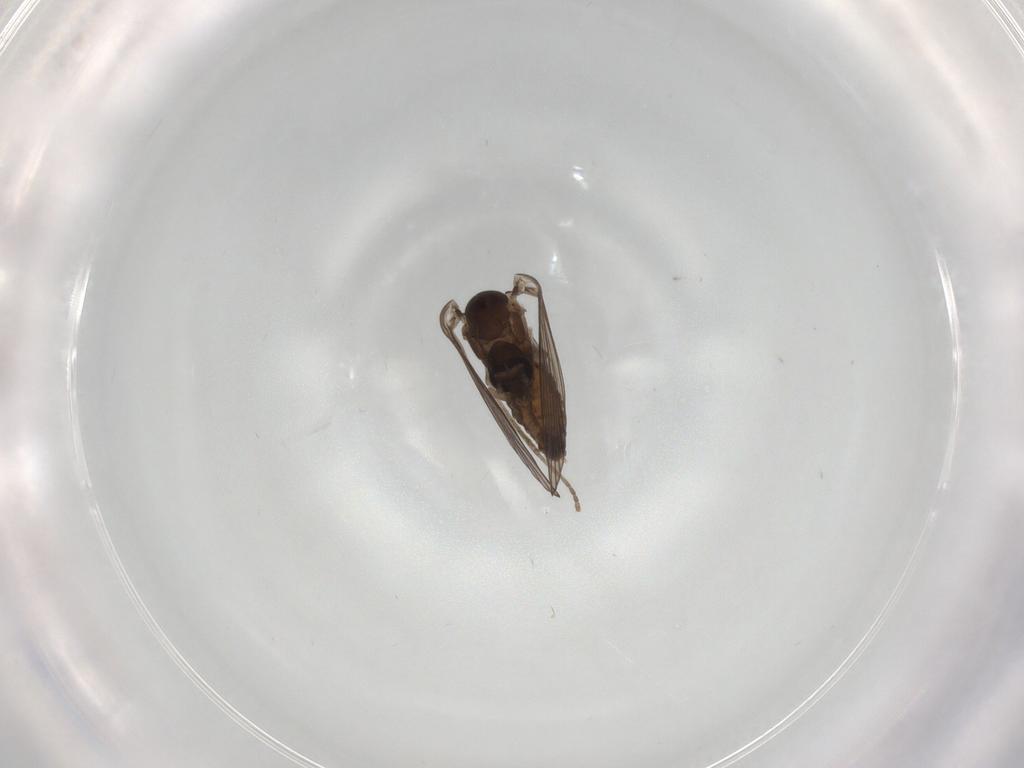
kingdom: Animalia
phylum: Arthropoda
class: Insecta
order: Diptera
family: Psychodidae
